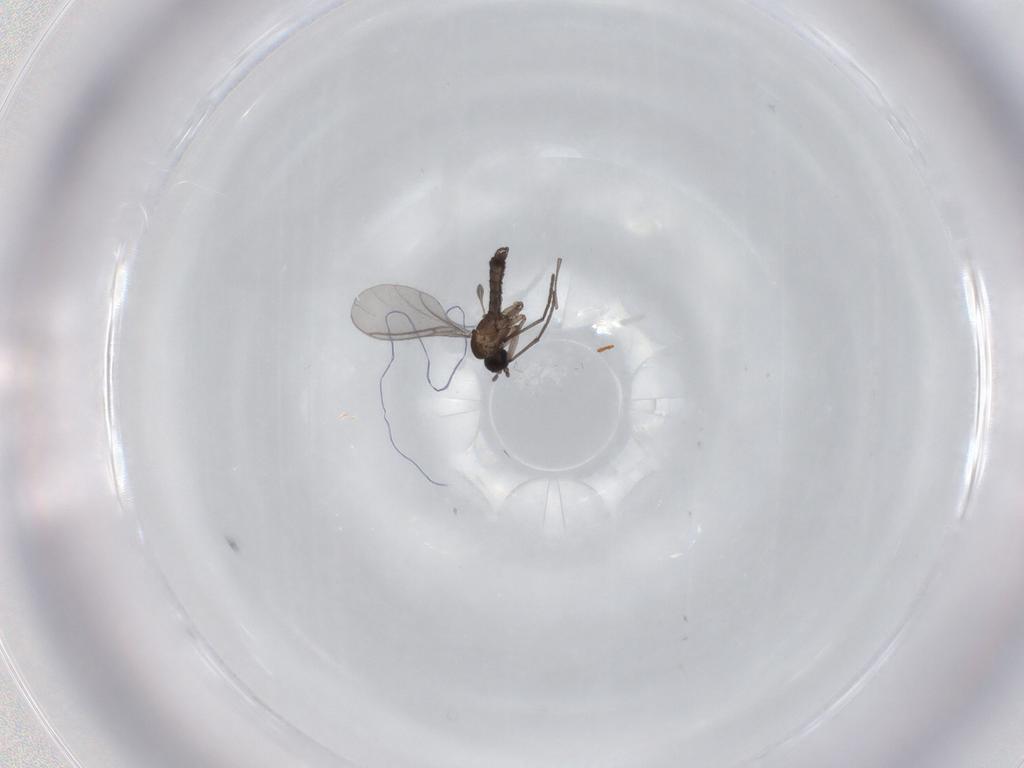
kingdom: Animalia
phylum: Arthropoda
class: Insecta
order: Diptera
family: Sciaridae
